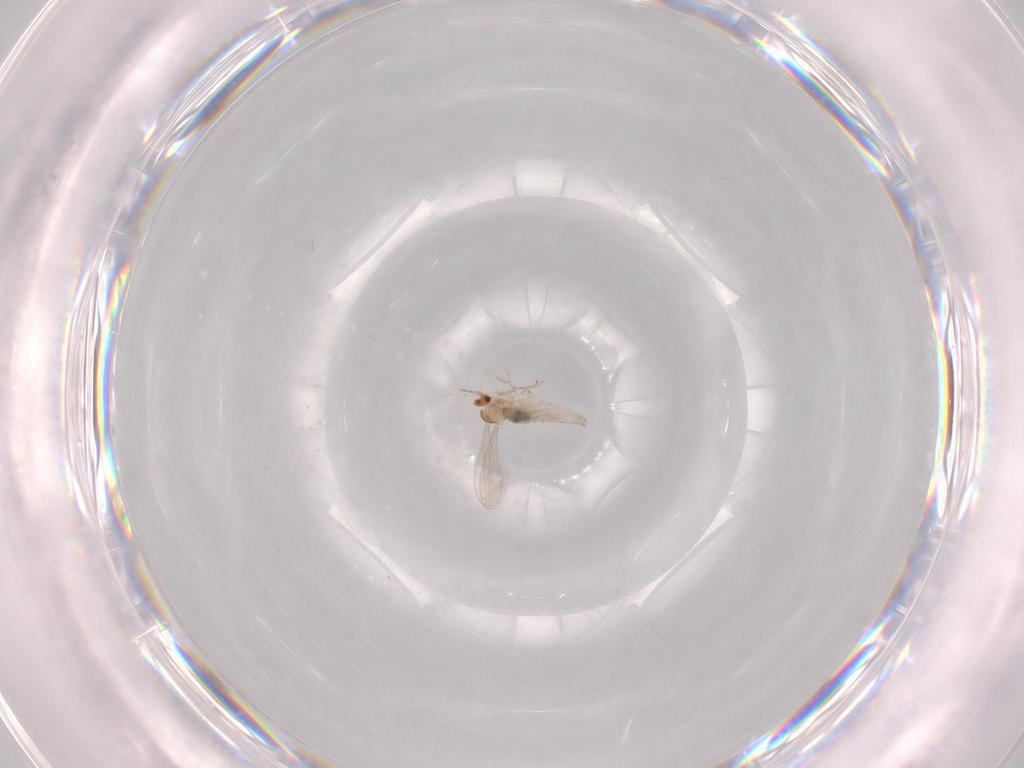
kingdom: Animalia
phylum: Arthropoda
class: Insecta
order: Diptera
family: Cecidomyiidae
